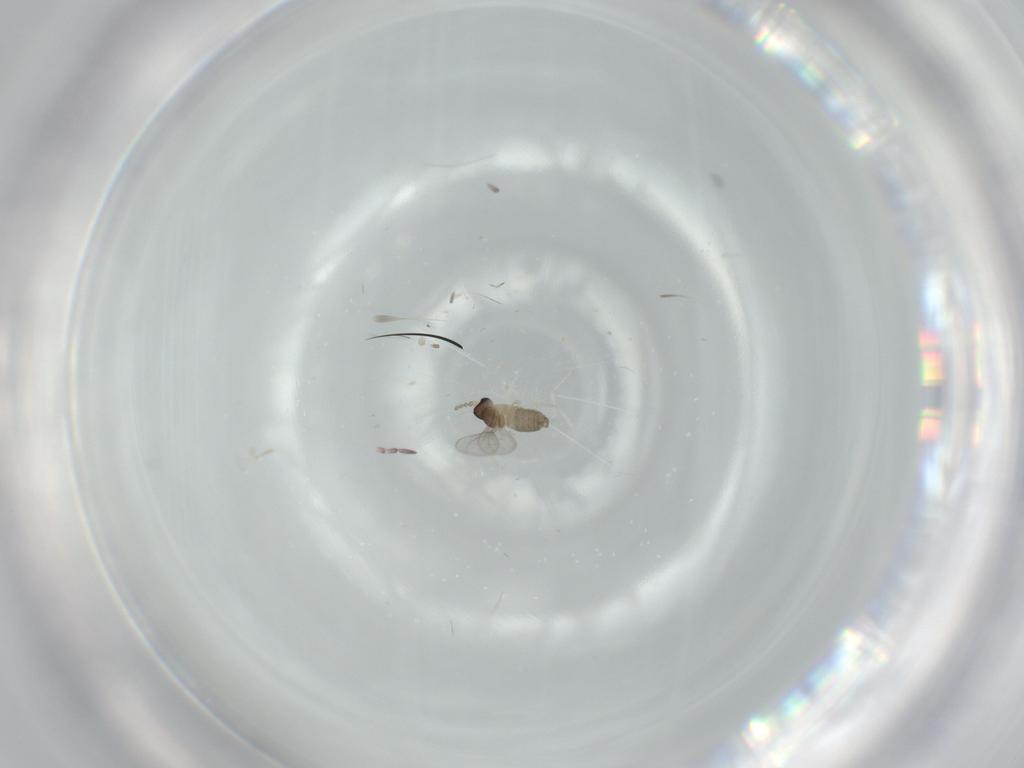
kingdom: Animalia
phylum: Arthropoda
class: Insecta
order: Diptera
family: Cecidomyiidae
